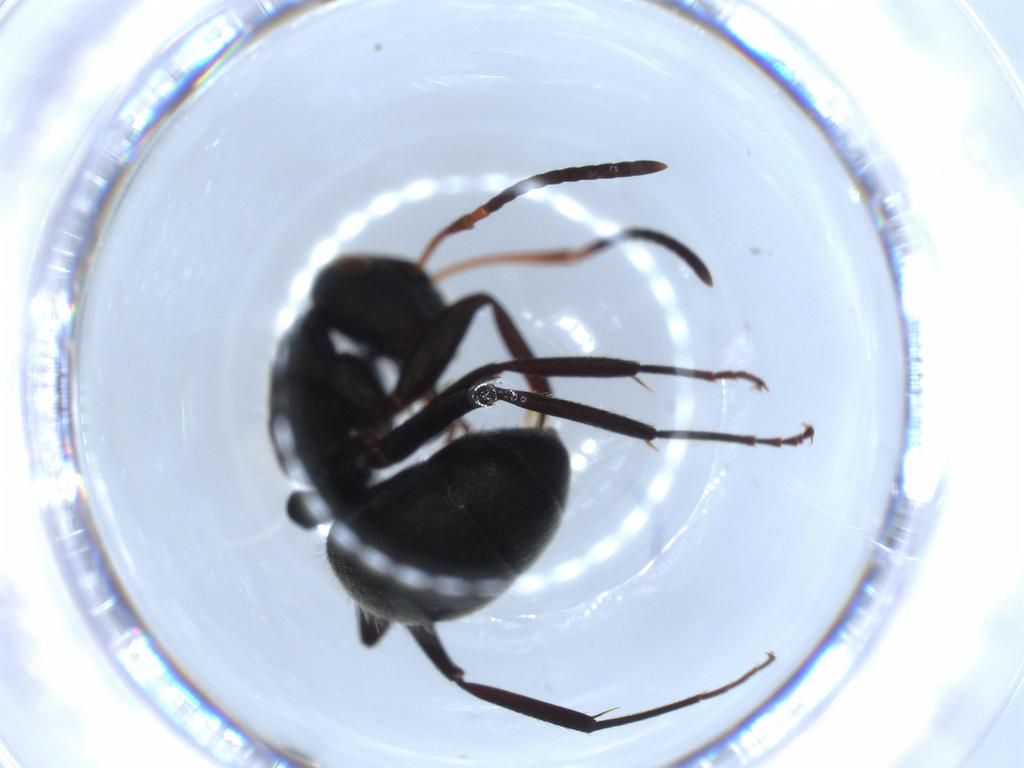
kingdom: Animalia
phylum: Arthropoda
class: Insecta
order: Hymenoptera
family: Formicidae
